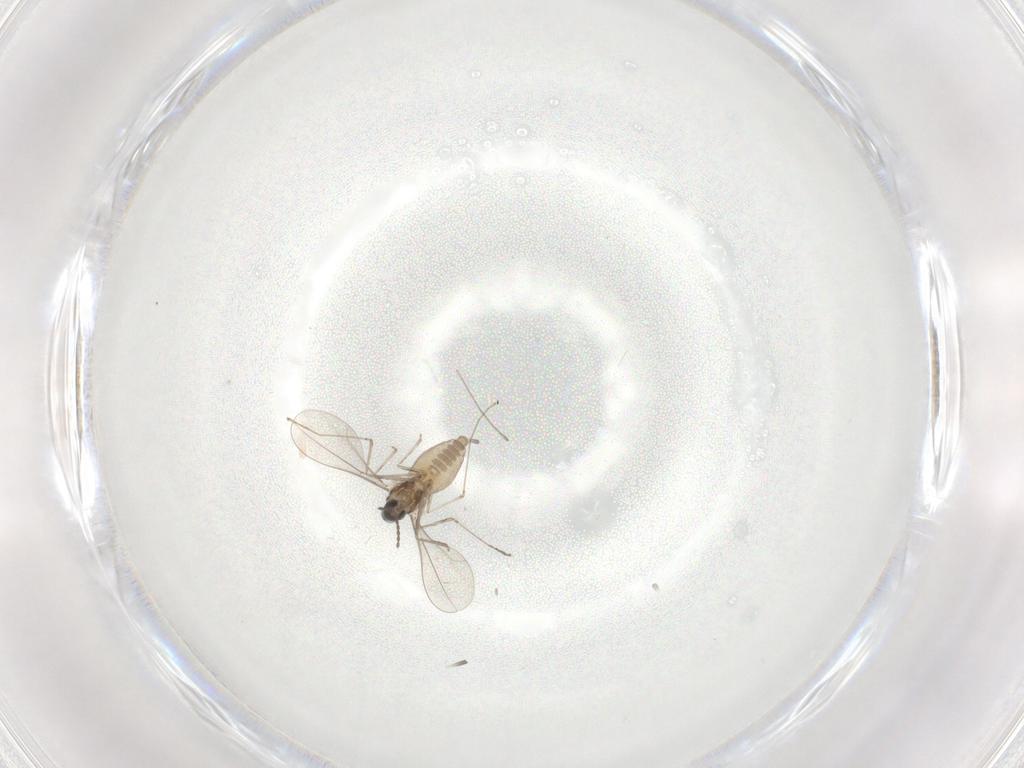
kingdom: Animalia
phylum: Arthropoda
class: Insecta
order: Diptera
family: Cecidomyiidae
